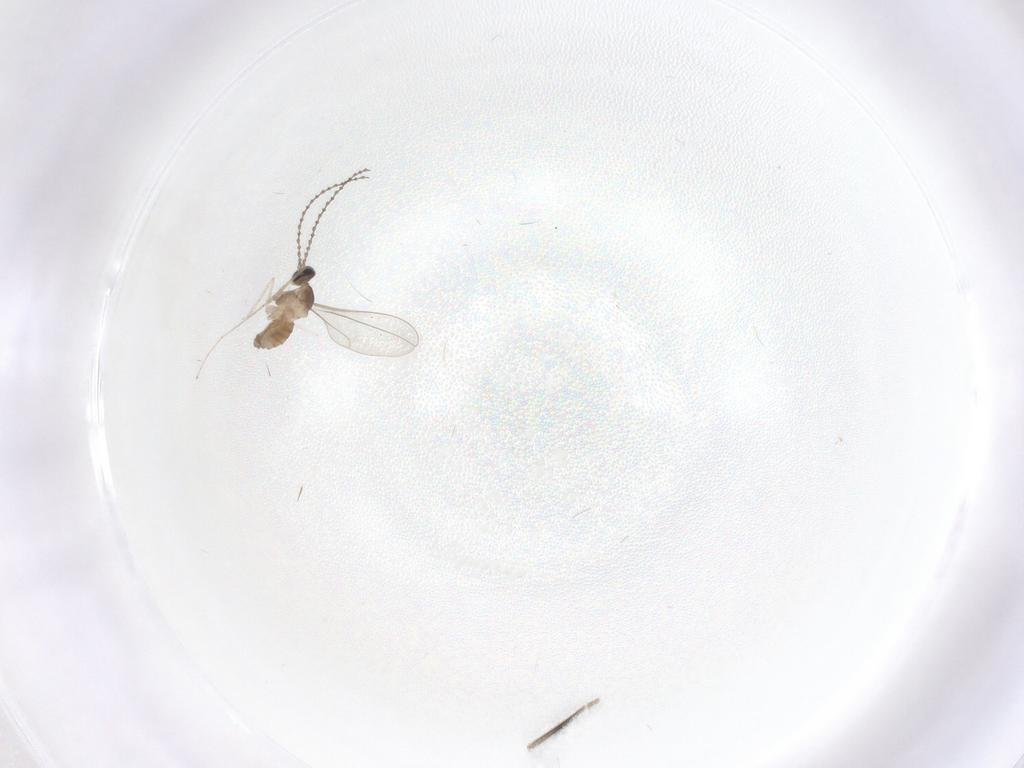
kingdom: Animalia
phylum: Arthropoda
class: Insecta
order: Diptera
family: Cecidomyiidae
